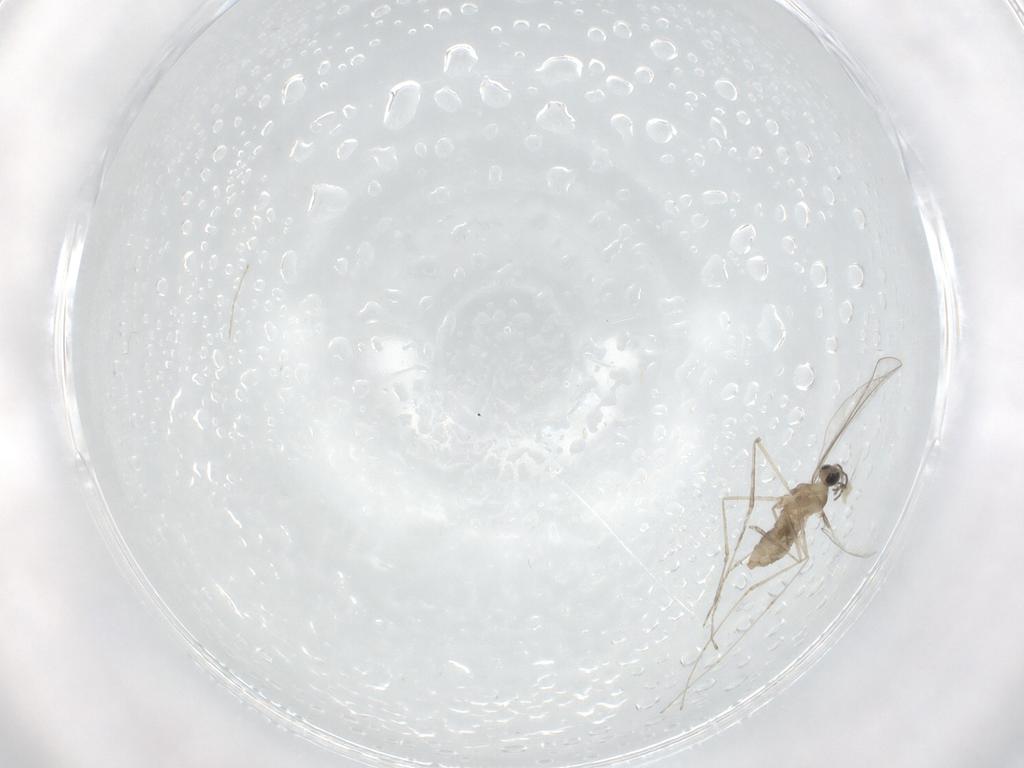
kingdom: Animalia
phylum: Arthropoda
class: Insecta
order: Diptera
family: Cecidomyiidae
